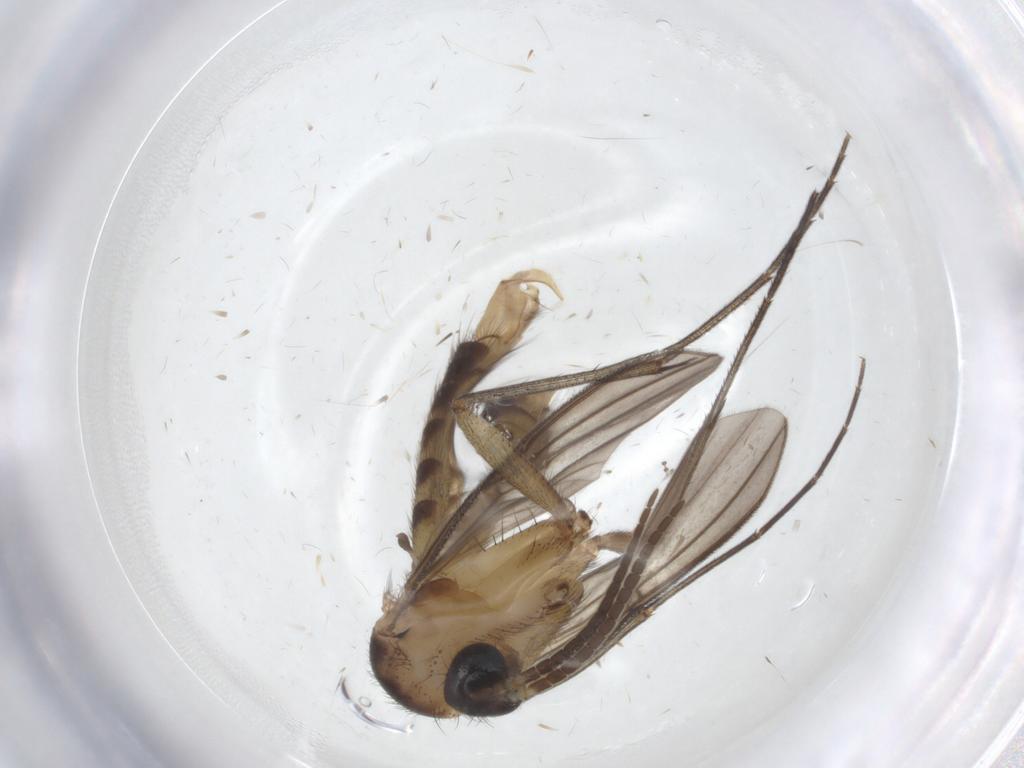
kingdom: Animalia
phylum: Arthropoda
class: Insecta
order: Diptera
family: Mycetophilidae
